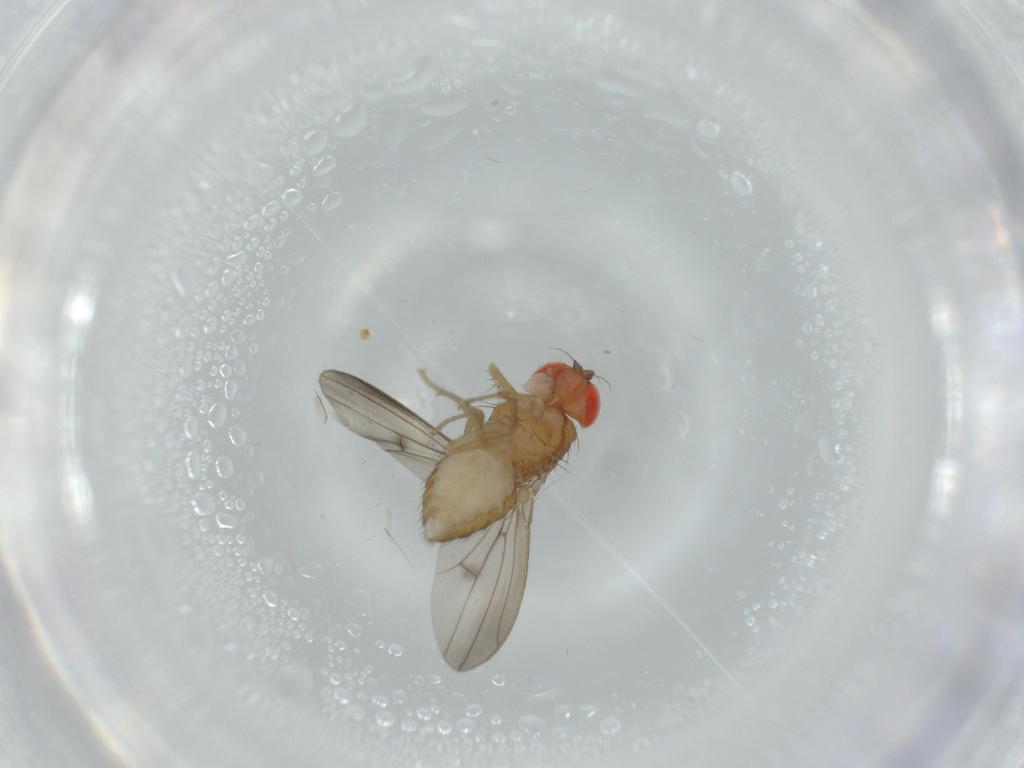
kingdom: Animalia
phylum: Arthropoda
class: Insecta
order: Diptera
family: Drosophilidae
